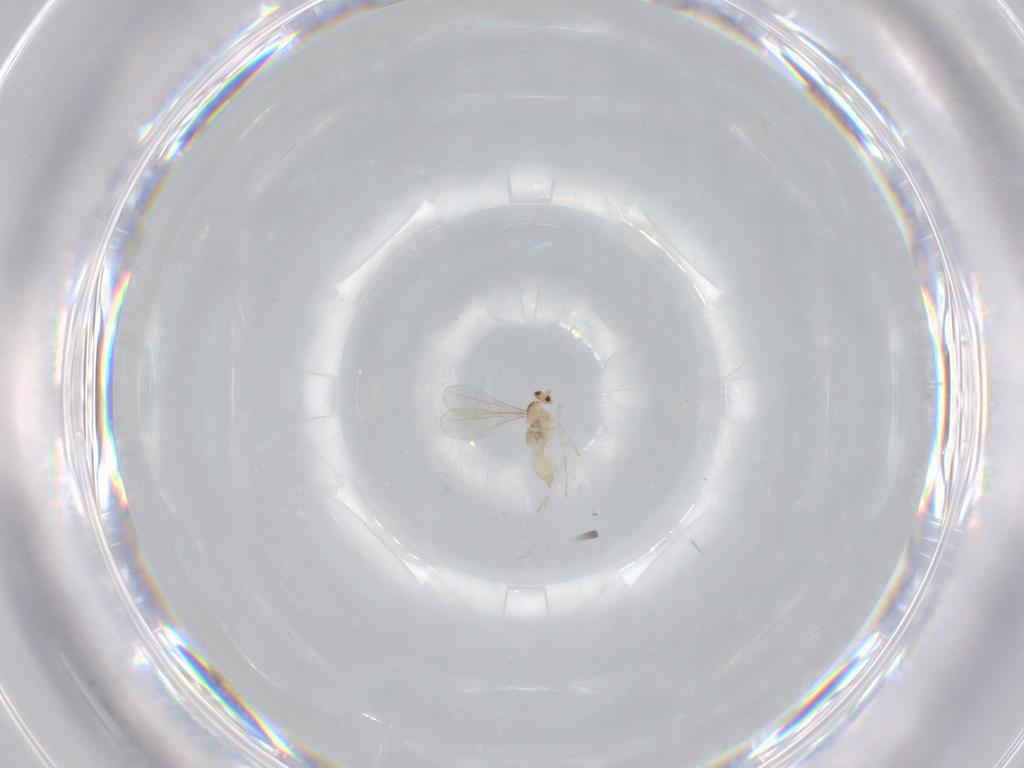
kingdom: Animalia
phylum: Arthropoda
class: Insecta
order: Diptera
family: Cecidomyiidae
